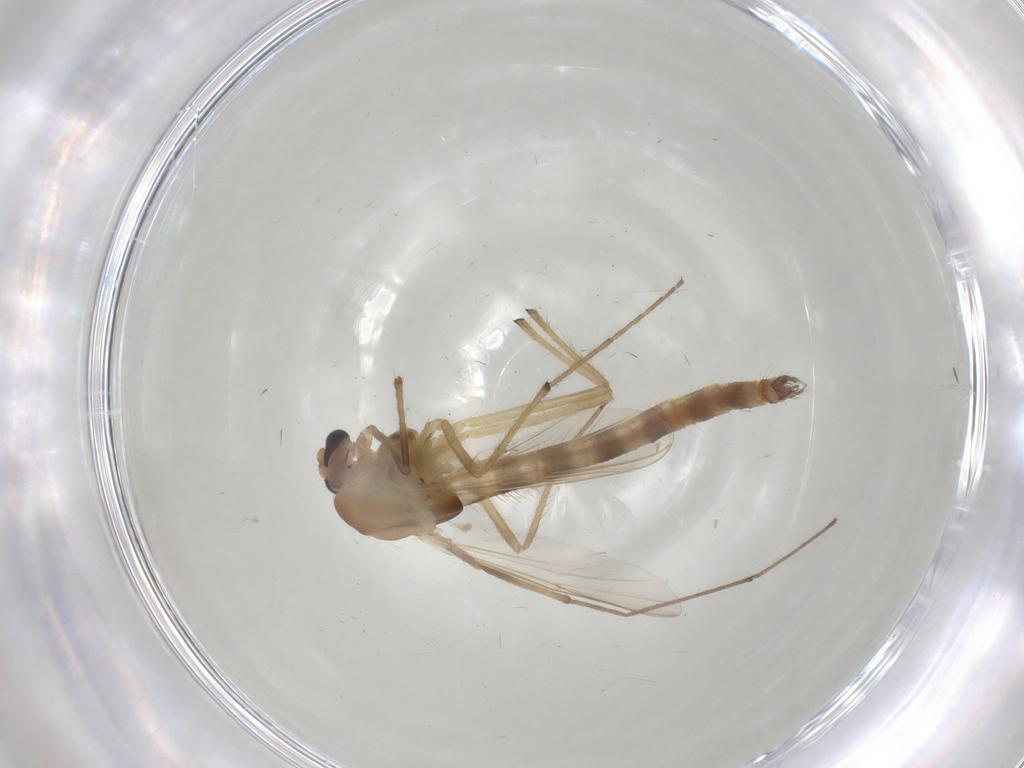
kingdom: Animalia
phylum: Arthropoda
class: Insecta
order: Diptera
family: Chironomidae
